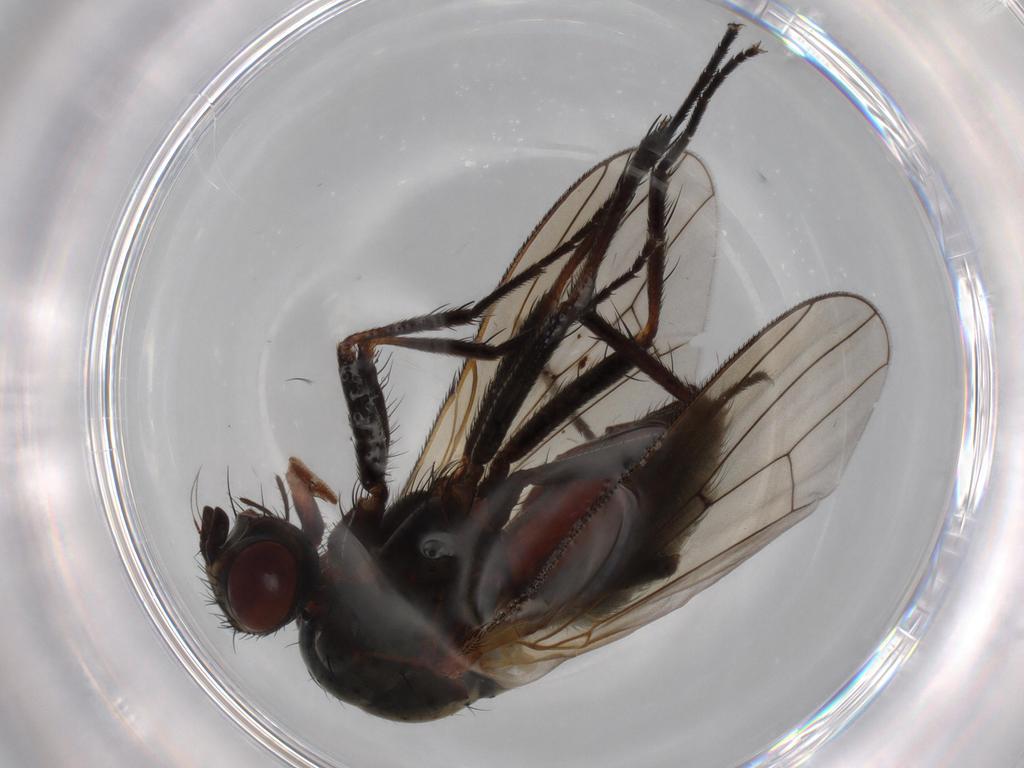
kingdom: Animalia
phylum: Arthropoda
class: Insecta
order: Diptera
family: Anthomyiidae
